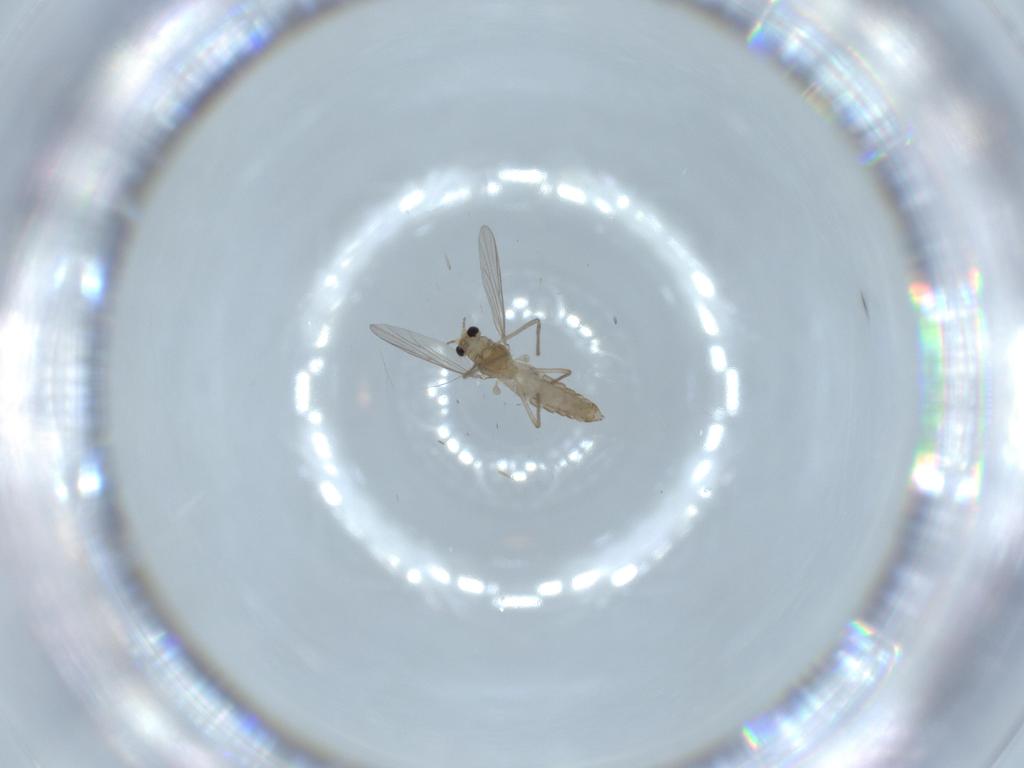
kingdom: Animalia
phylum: Arthropoda
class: Insecta
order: Diptera
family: Chironomidae
